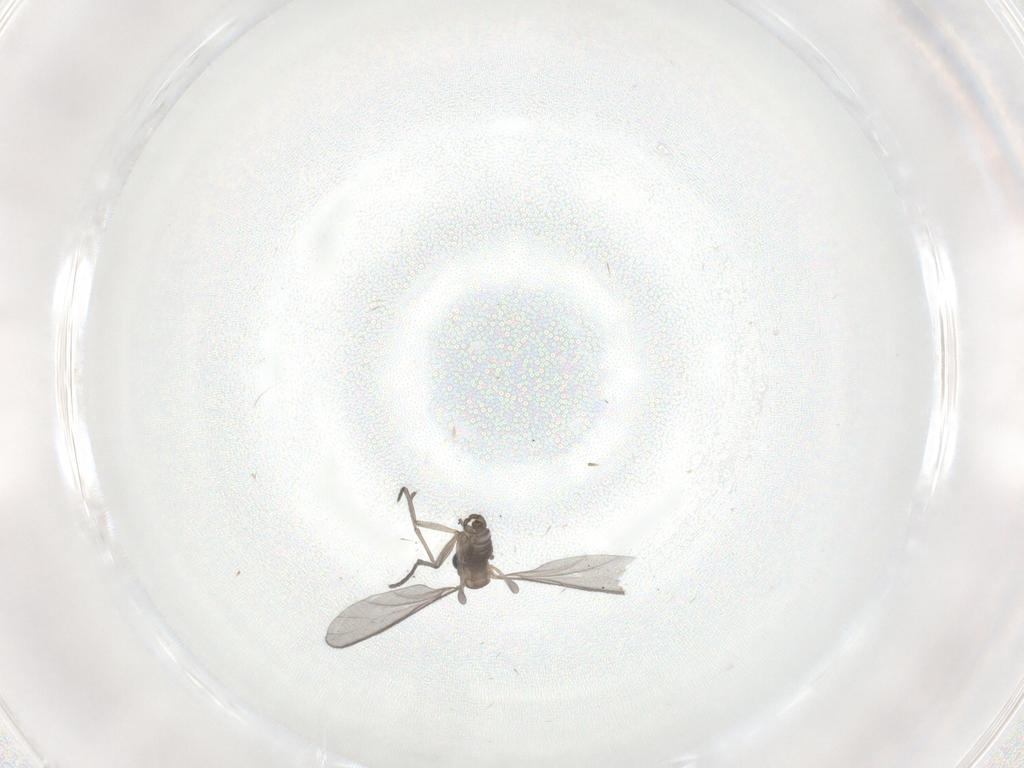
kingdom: Animalia
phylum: Arthropoda
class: Insecta
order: Diptera
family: Sciaridae
